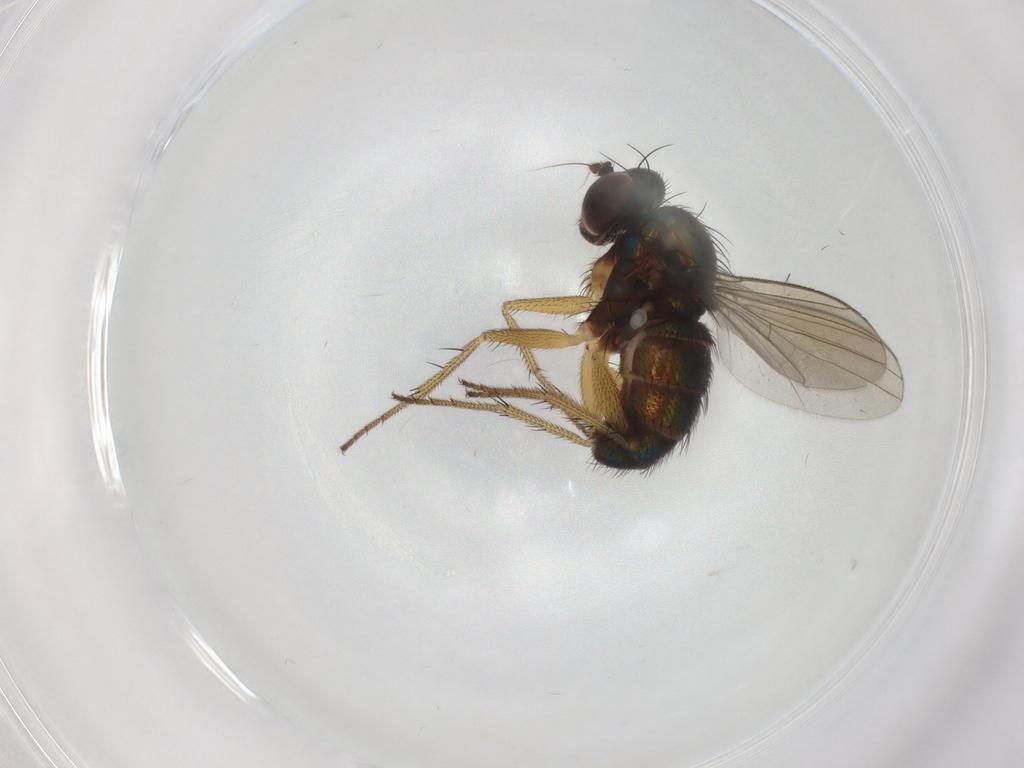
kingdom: Animalia
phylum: Arthropoda
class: Insecta
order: Diptera
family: Dolichopodidae
